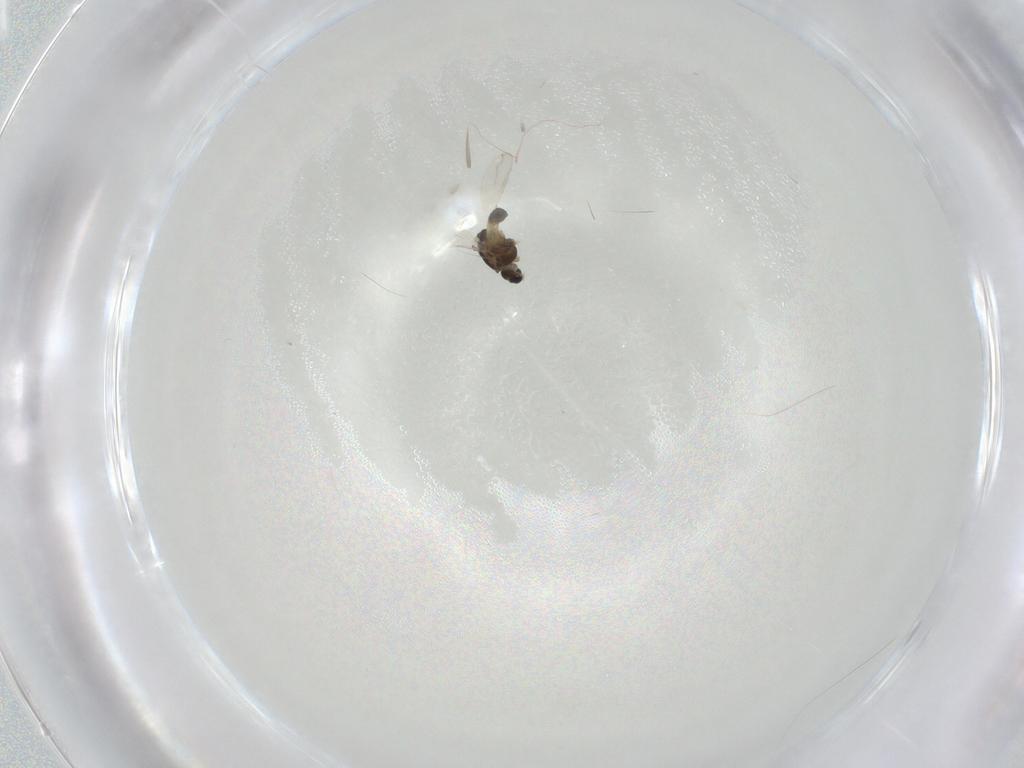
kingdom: Animalia
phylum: Arthropoda
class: Insecta
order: Diptera
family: Chironomidae
